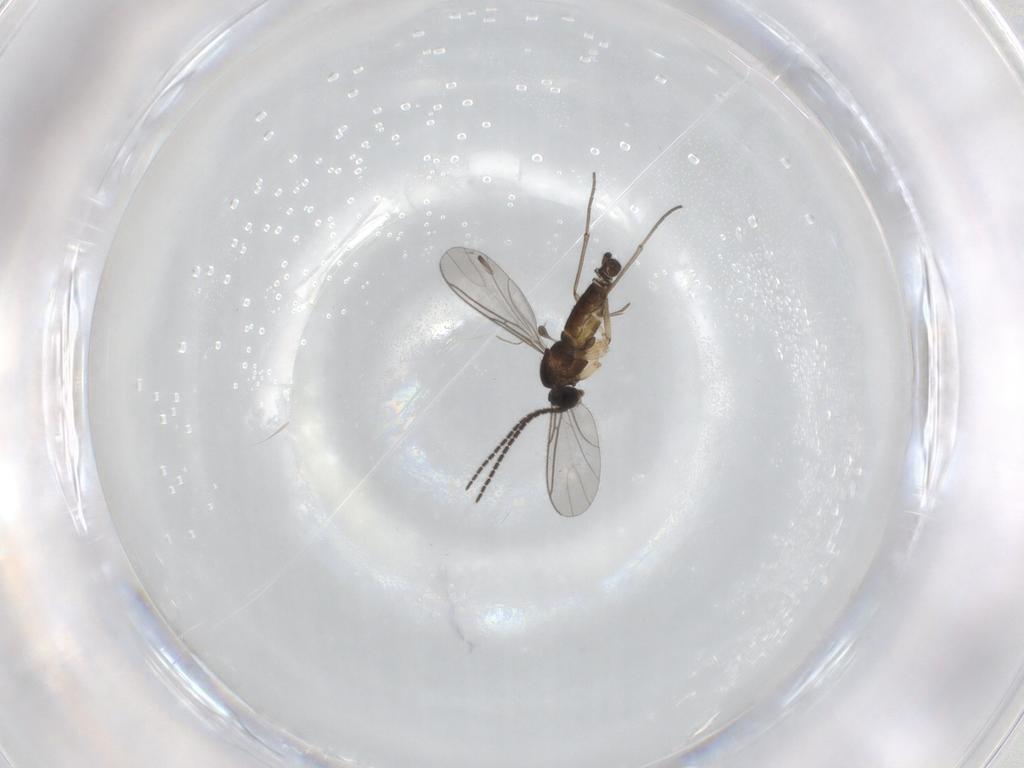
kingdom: Animalia
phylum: Arthropoda
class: Insecta
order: Diptera
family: Sciaridae
